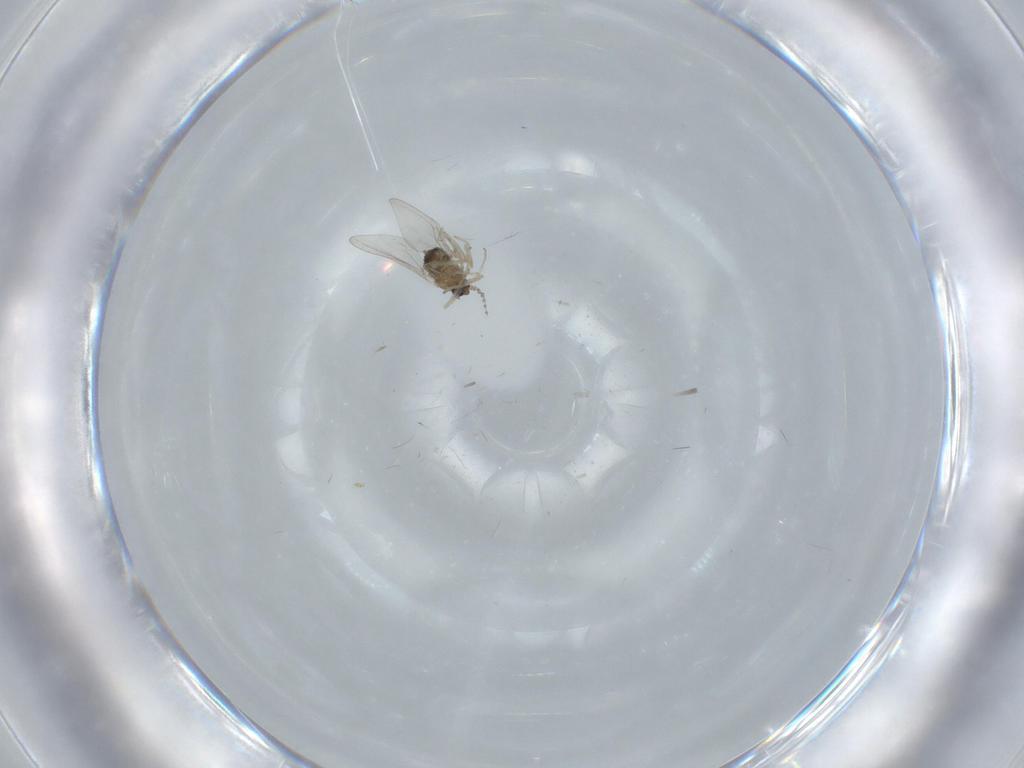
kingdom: Animalia
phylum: Arthropoda
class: Insecta
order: Diptera
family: Cecidomyiidae
